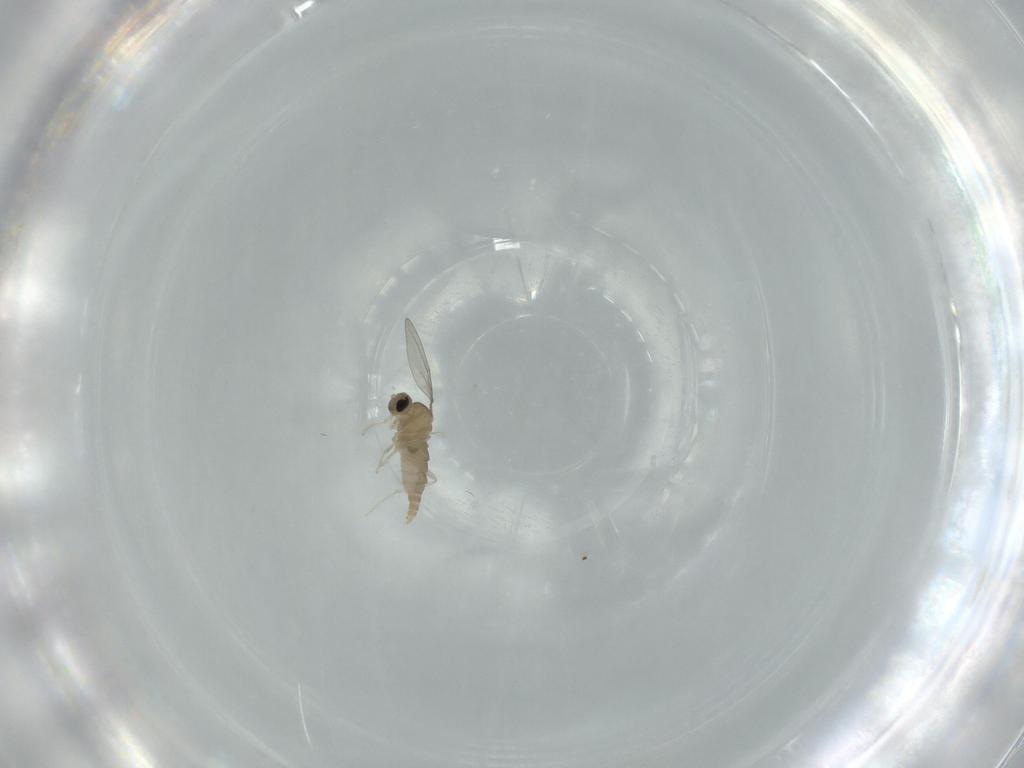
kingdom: Animalia
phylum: Arthropoda
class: Insecta
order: Diptera
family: Cecidomyiidae
